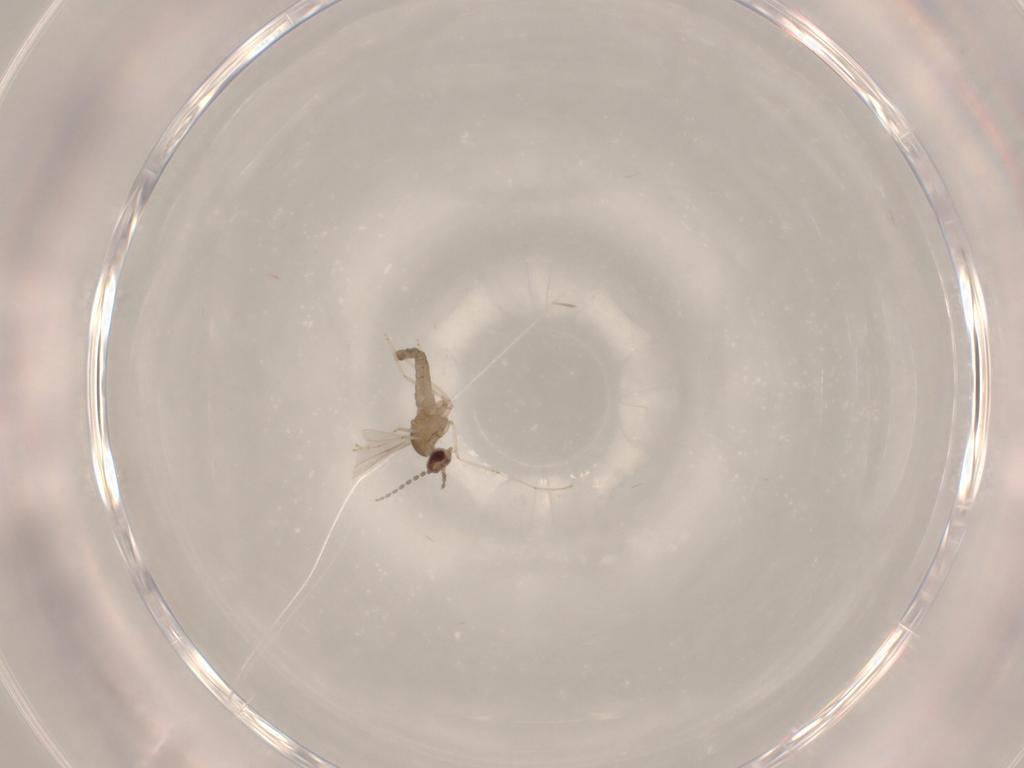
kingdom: Animalia
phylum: Arthropoda
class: Insecta
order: Diptera
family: Cecidomyiidae
